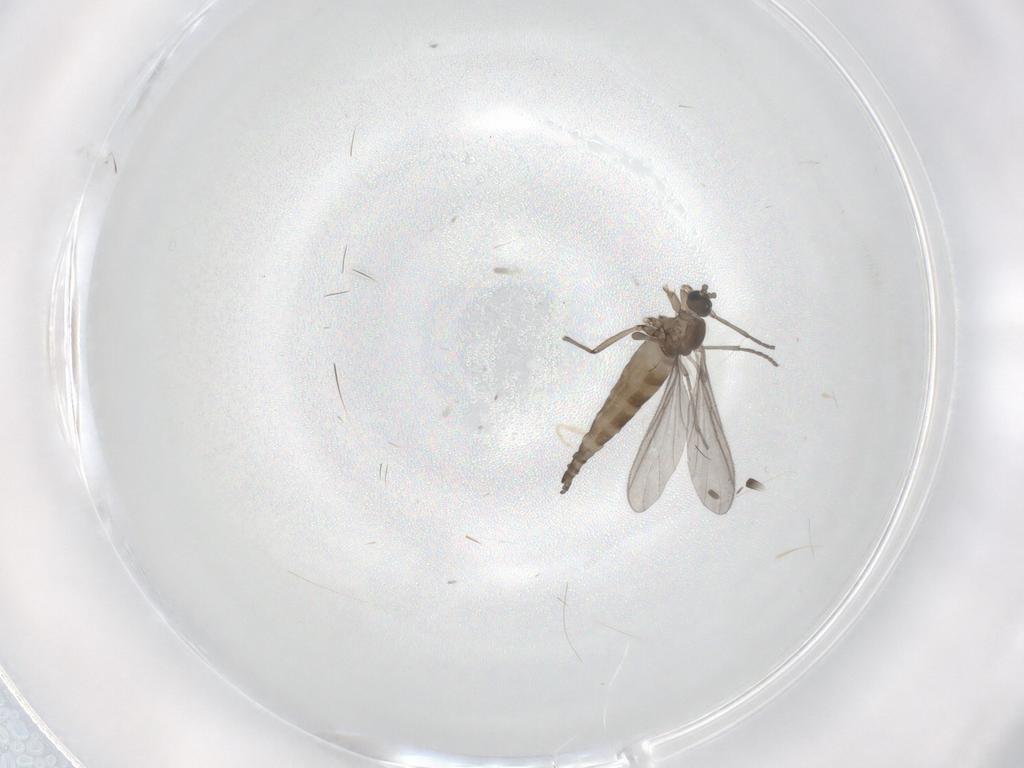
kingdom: Animalia
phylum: Arthropoda
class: Insecta
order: Diptera
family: Sciaridae
